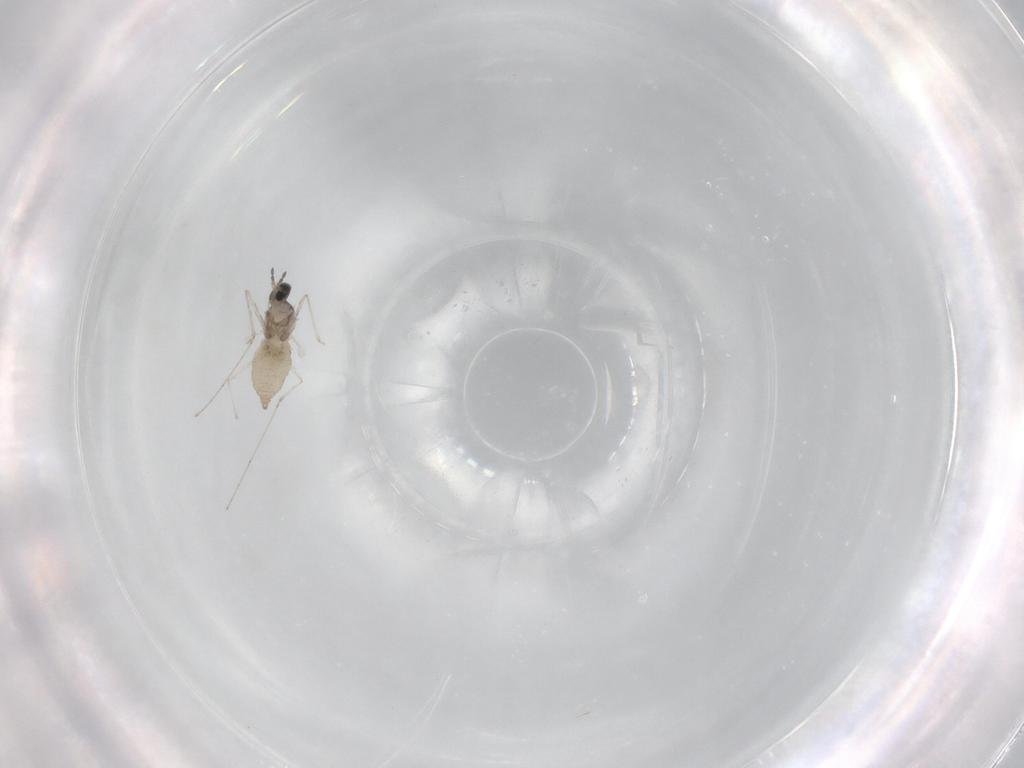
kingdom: Animalia
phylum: Arthropoda
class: Insecta
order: Diptera
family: Cecidomyiidae
